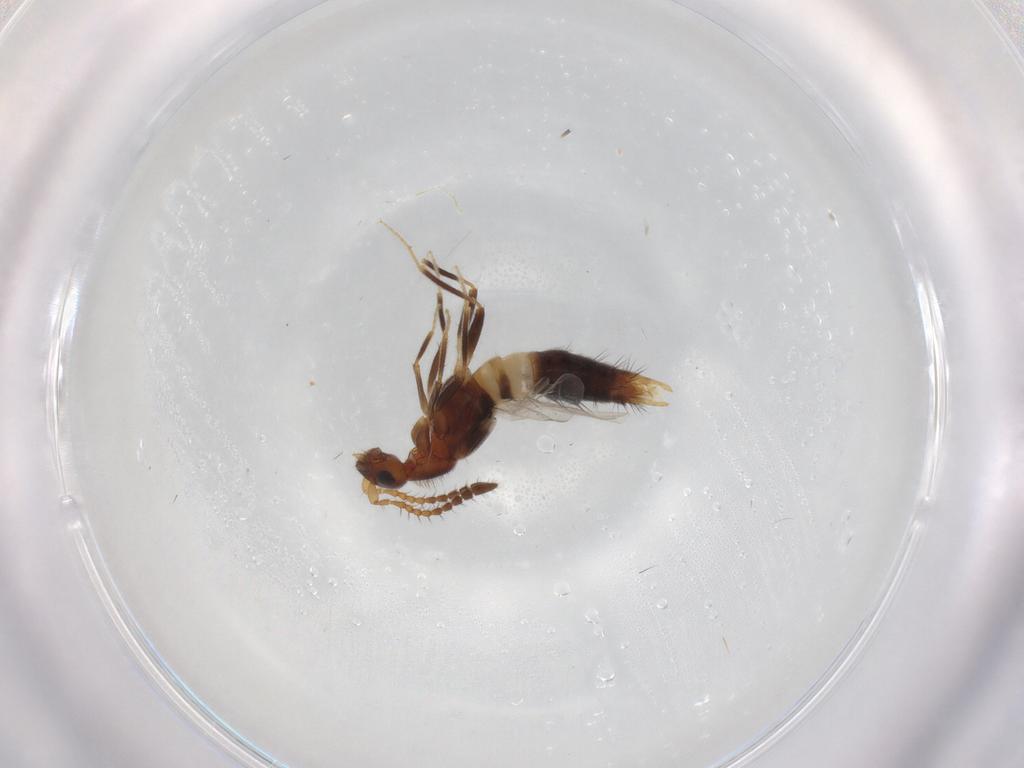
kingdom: Animalia
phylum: Arthropoda
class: Insecta
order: Coleoptera
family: Staphylinidae
